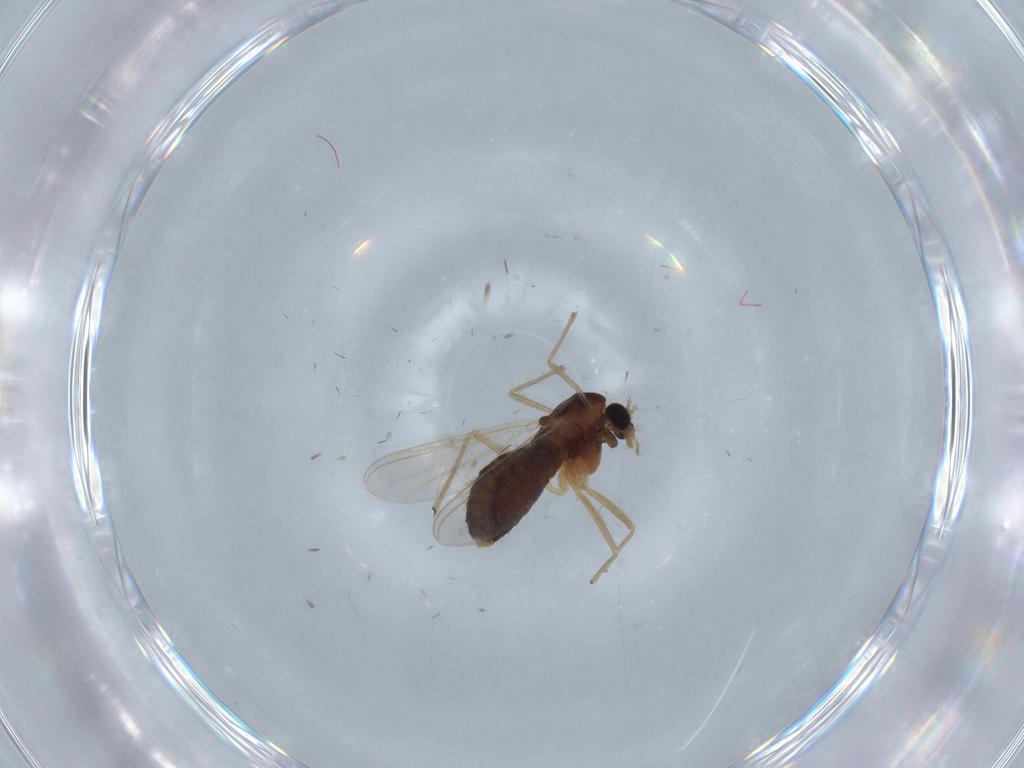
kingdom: Animalia
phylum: Arthropoda
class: Insecta
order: Diptera
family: Chironomidae
